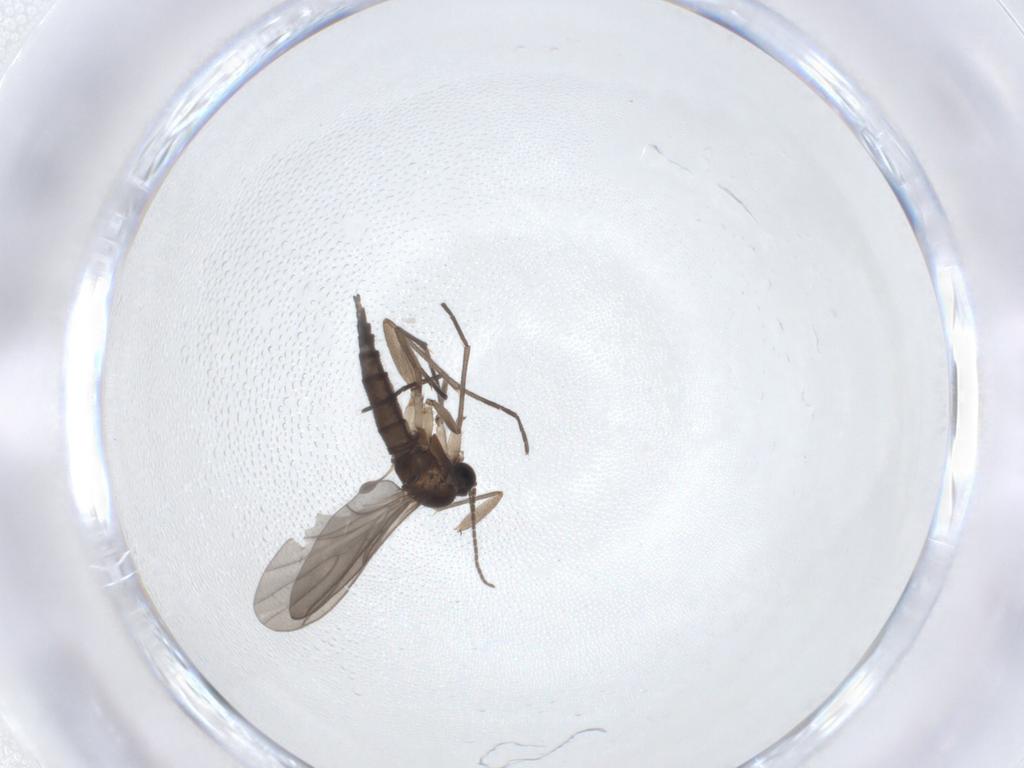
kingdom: Animalia
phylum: Arthropoda
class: Insecta
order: Diptera
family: Sciaridae
